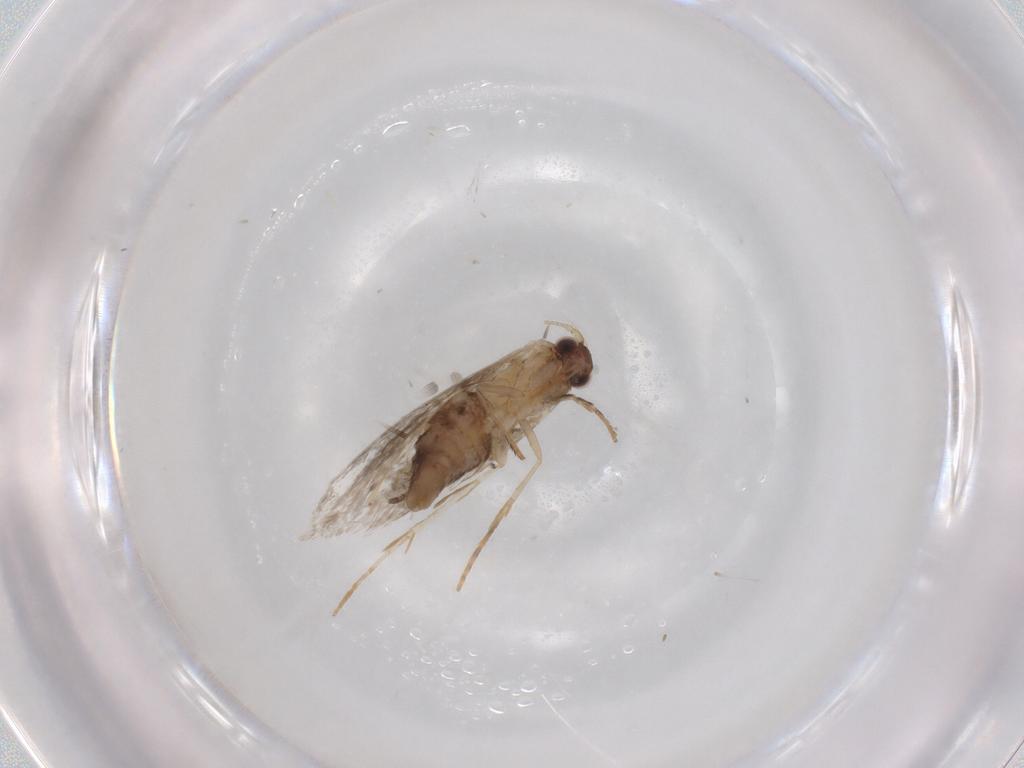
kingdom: Animalia
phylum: Arthropoda
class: Insecta
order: Lepidoptera
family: Tineidae
